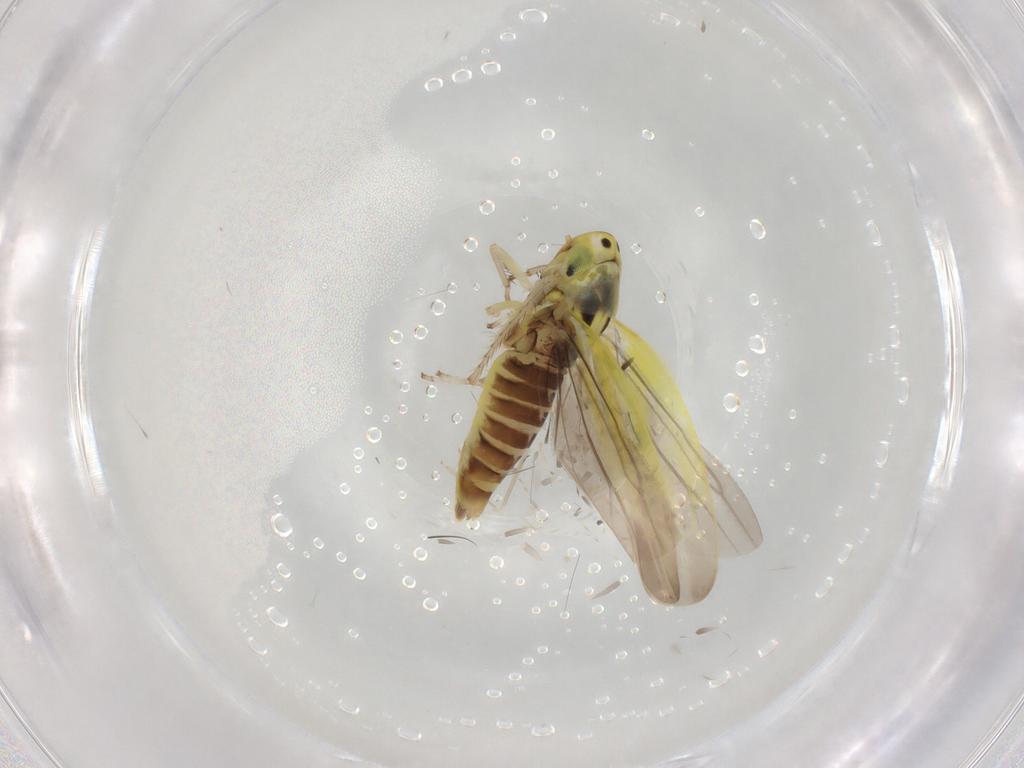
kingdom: Animalia
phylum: Arthropoda
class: Insecta
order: Hemiptera
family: Cicadellidae
